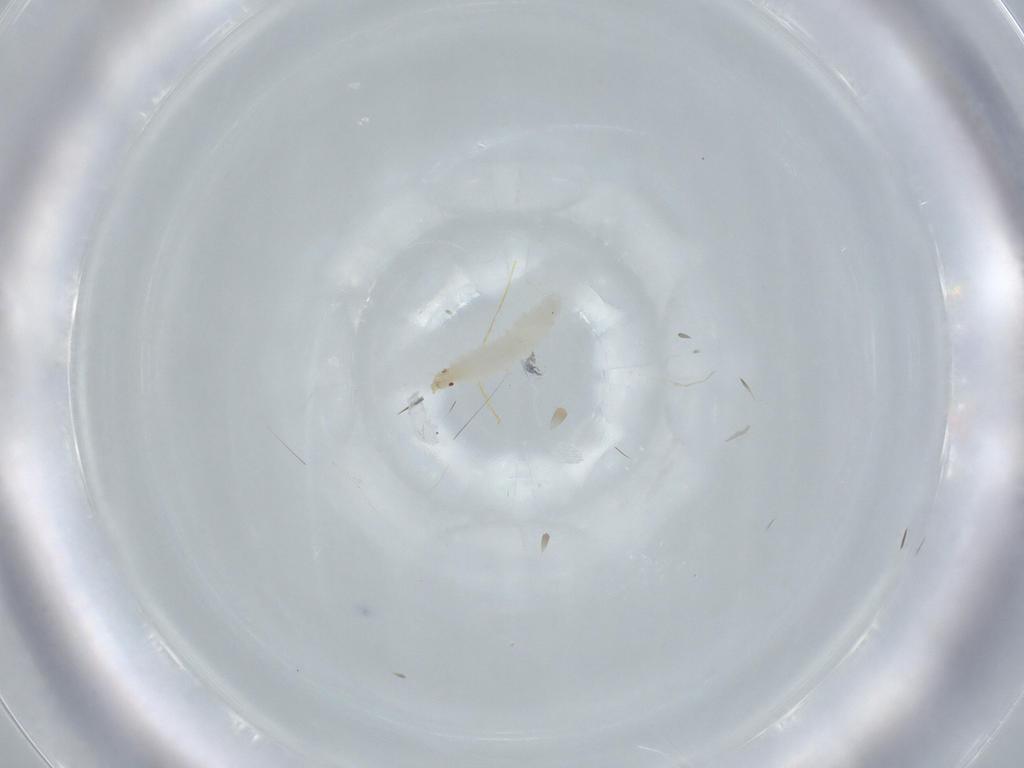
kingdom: Animalia
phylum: Arthropoda
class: Insecta
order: Diptera
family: Stratiomyidae
